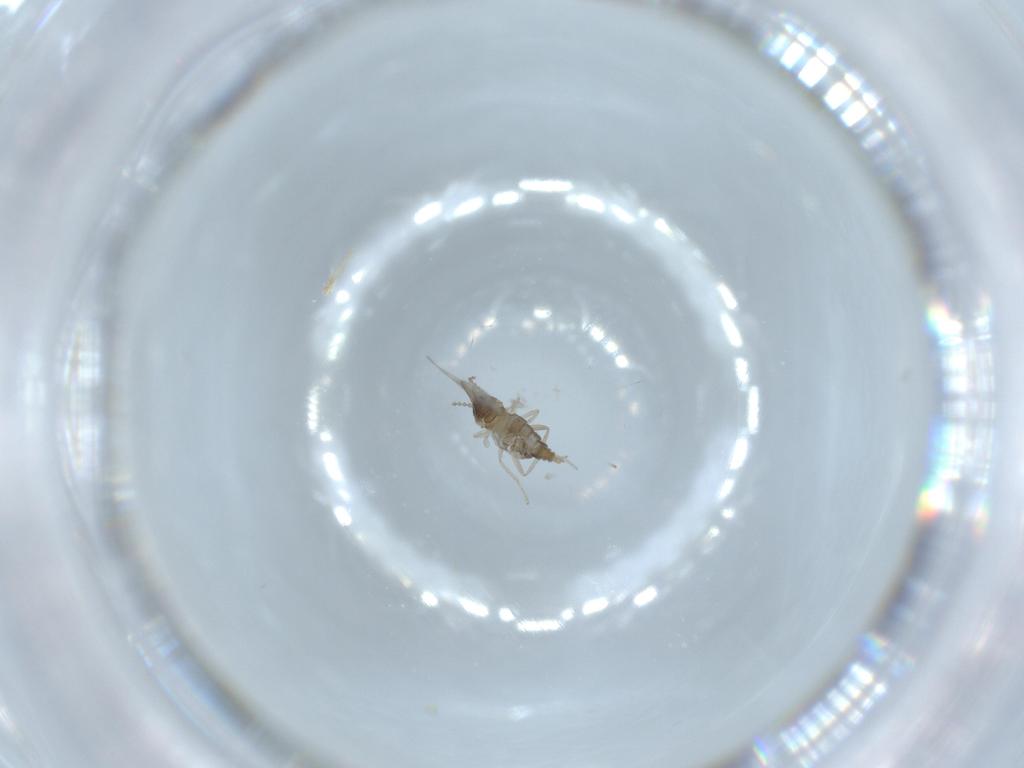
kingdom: Animalia
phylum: Arthropoda
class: Insecta
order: Diptera
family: Cecidomyiidae
